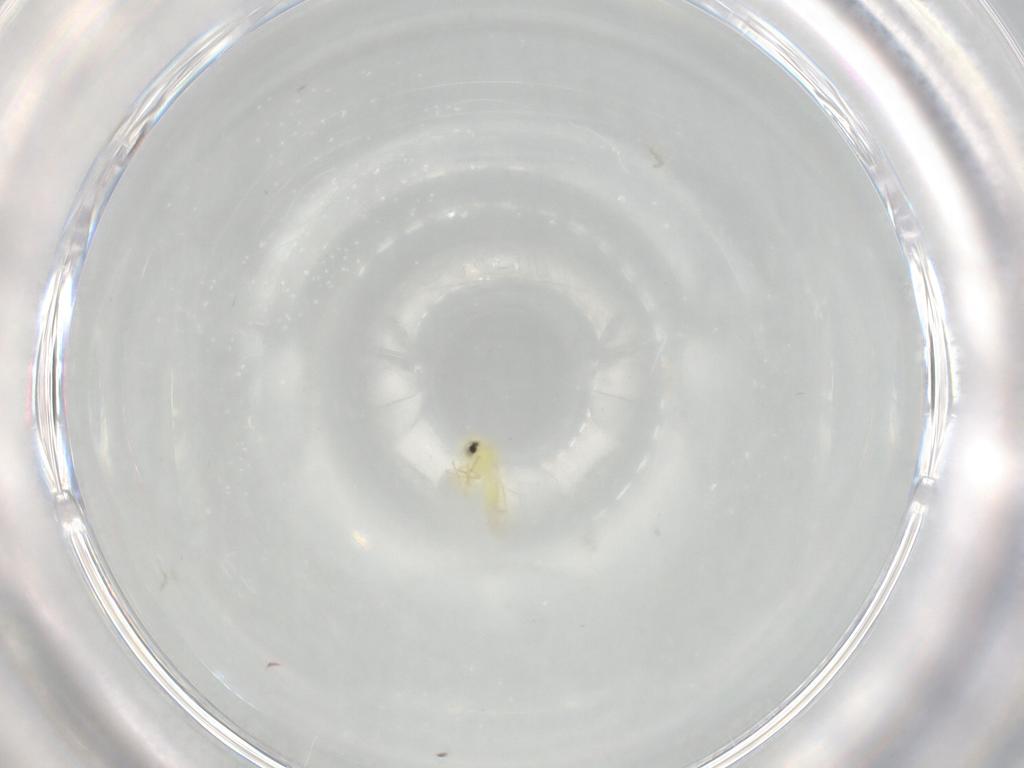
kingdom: Animalia
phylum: Arthropoda
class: Insecta
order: Hemiptera
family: Aleyrodidae
